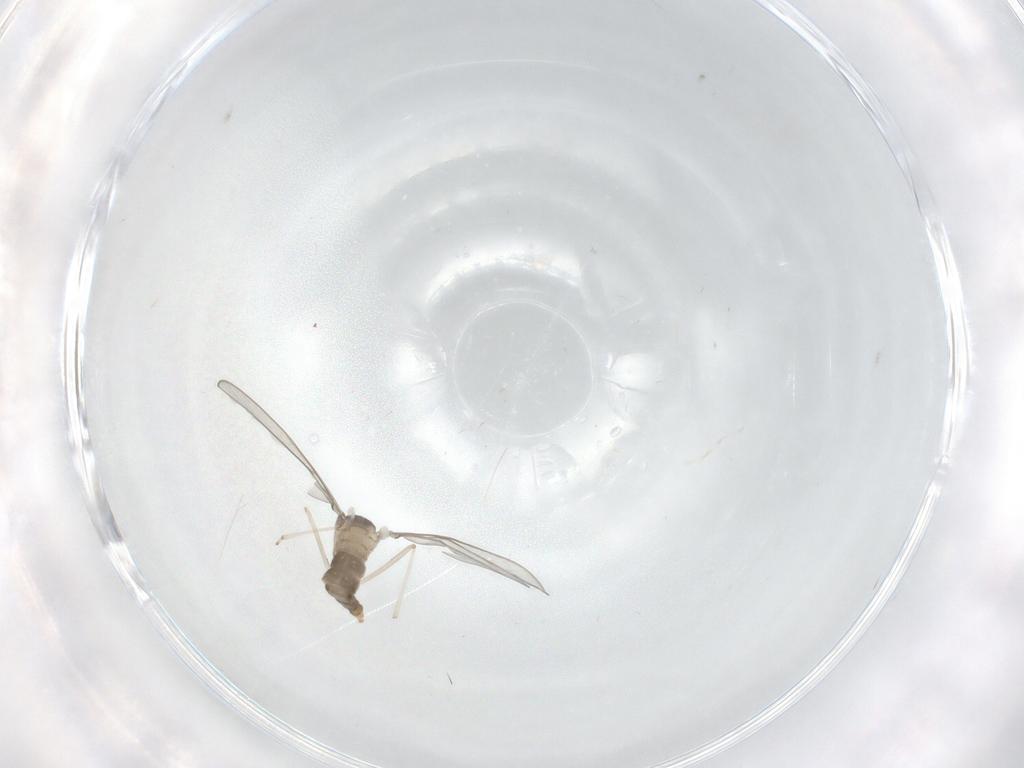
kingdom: Animalia
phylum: Arthropoda
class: Insecta
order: Diptera
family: Cecidomyiidae
